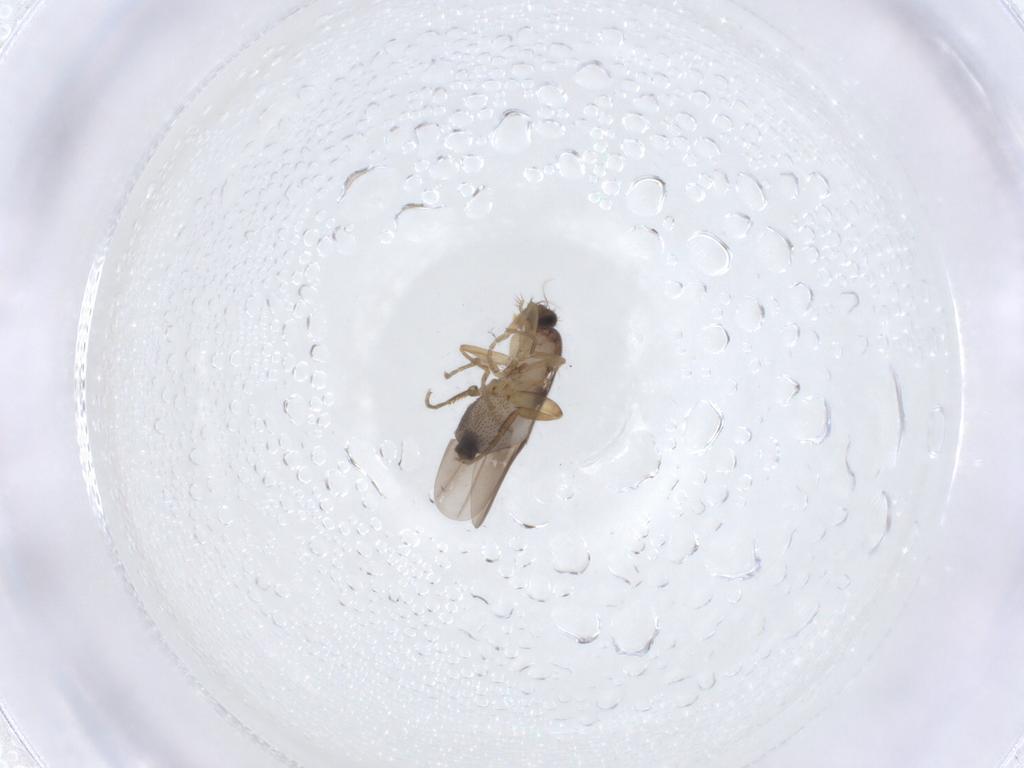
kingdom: Animalia
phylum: Arthropoda
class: Insecta
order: Diptera
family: Phoridae
